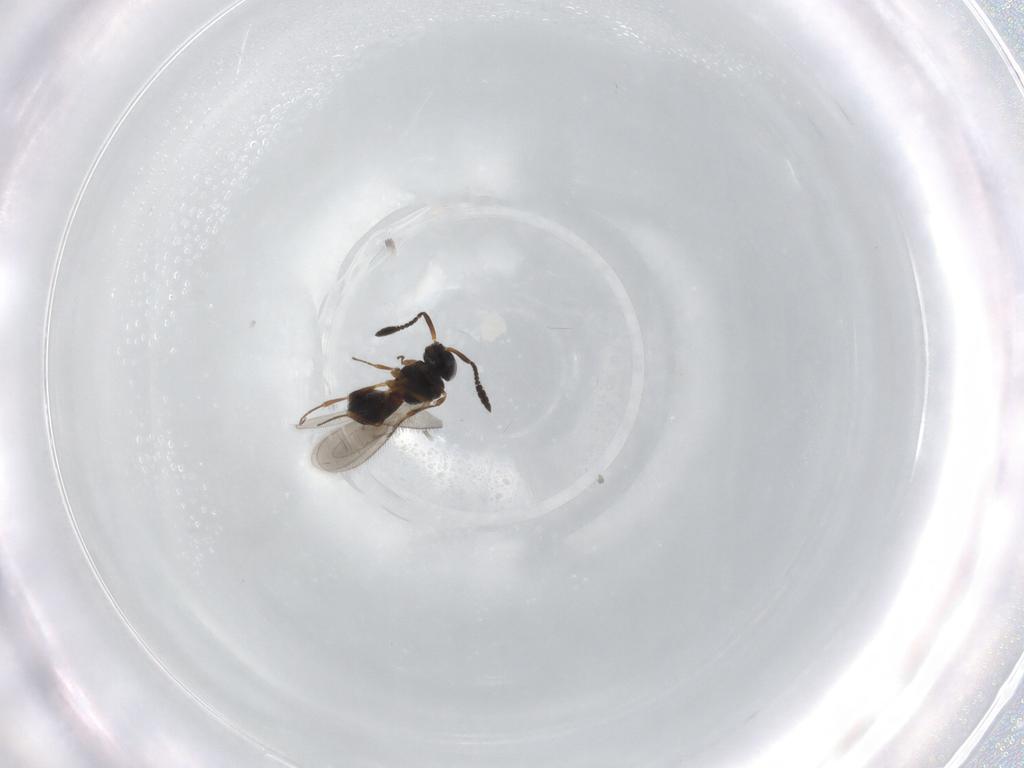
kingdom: Animalia
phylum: Arthropoda
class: Insecta
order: Hymenoptera
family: Scelionidae
